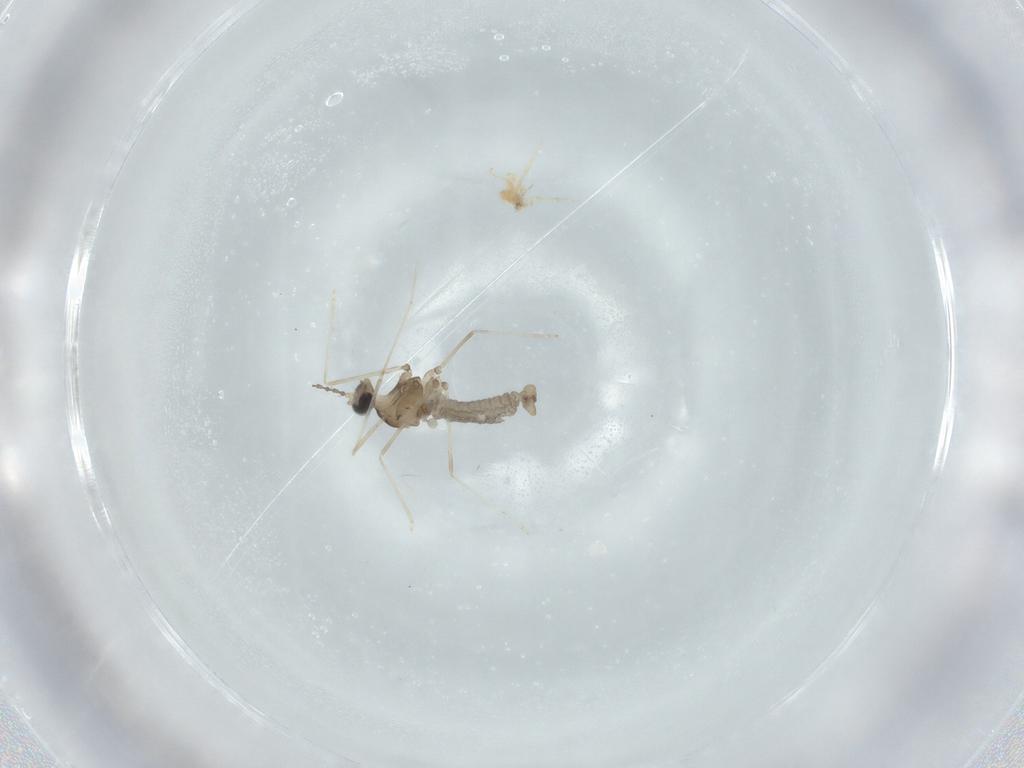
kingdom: Animalia
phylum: Arthropoda
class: Insecta
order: Diptera
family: Cecidomyiidae
